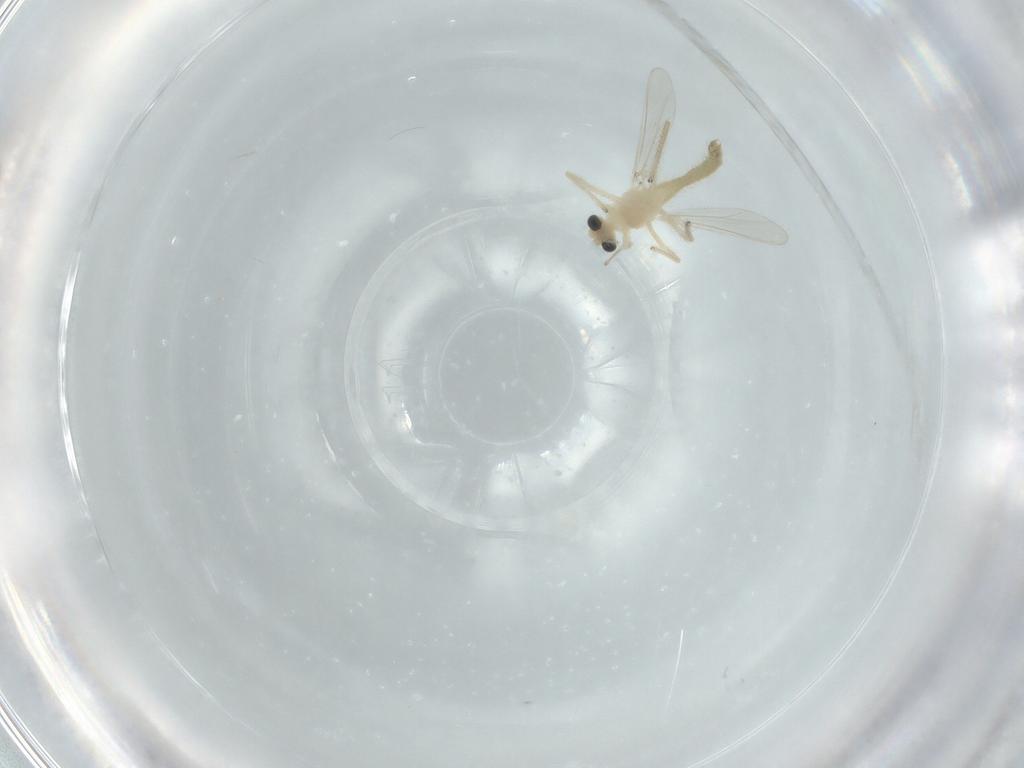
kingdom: Animalia
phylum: Arthropoda
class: Insecta
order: Diptera
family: Chironomidae
